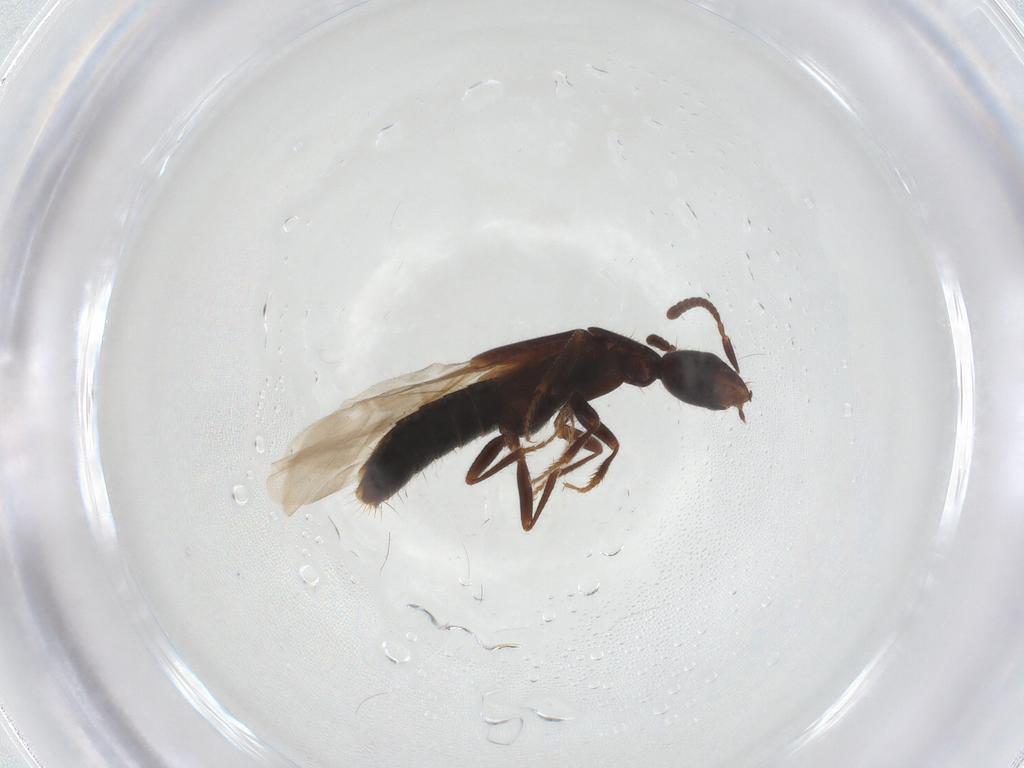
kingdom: Animalia
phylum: Arthropoda
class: Insecta
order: Coleoptera
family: Staphylinidae
